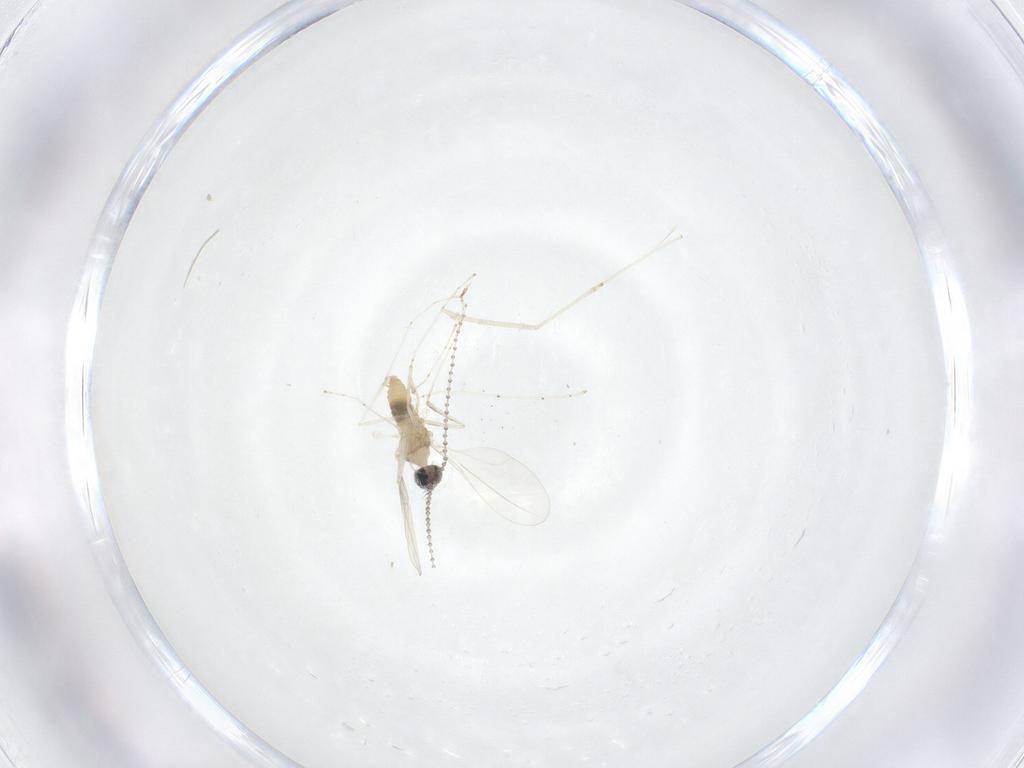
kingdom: Animalia
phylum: Arthropoda
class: Insecta
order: Diptera
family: Cecidomyiidae
